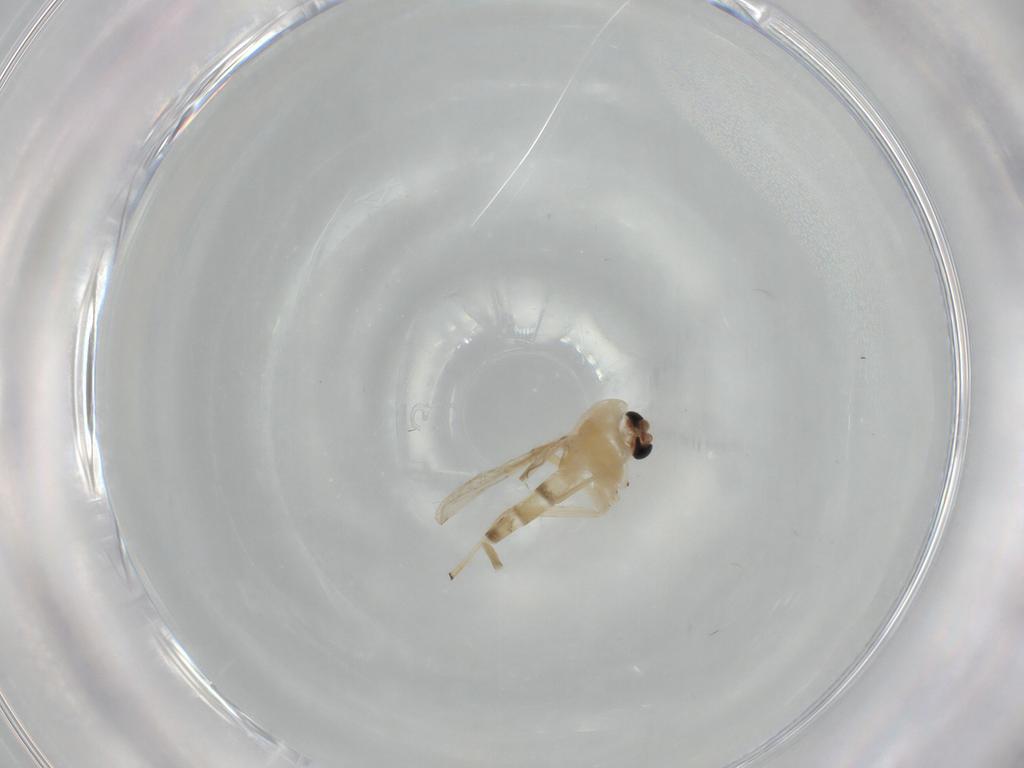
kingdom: Animalia
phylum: Arthropoda
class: Insecta
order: Diptera
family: Chironomidae
